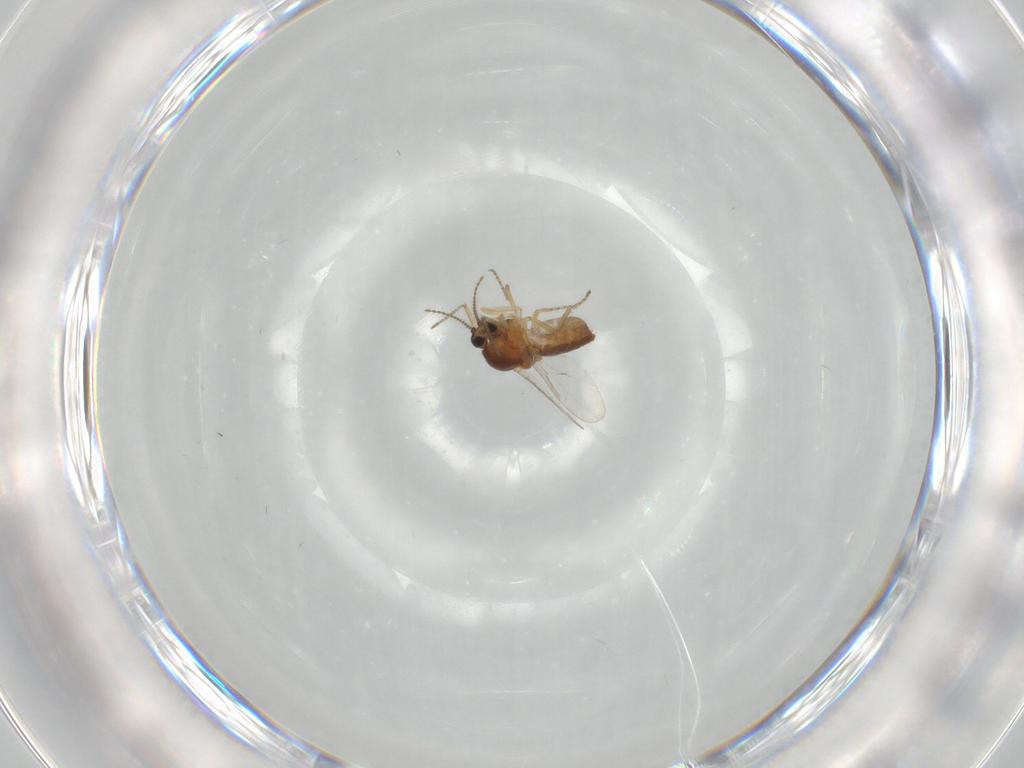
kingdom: Animalia
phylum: Arthropoda
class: Insecta
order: Diptera
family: Ceratopogonidae
